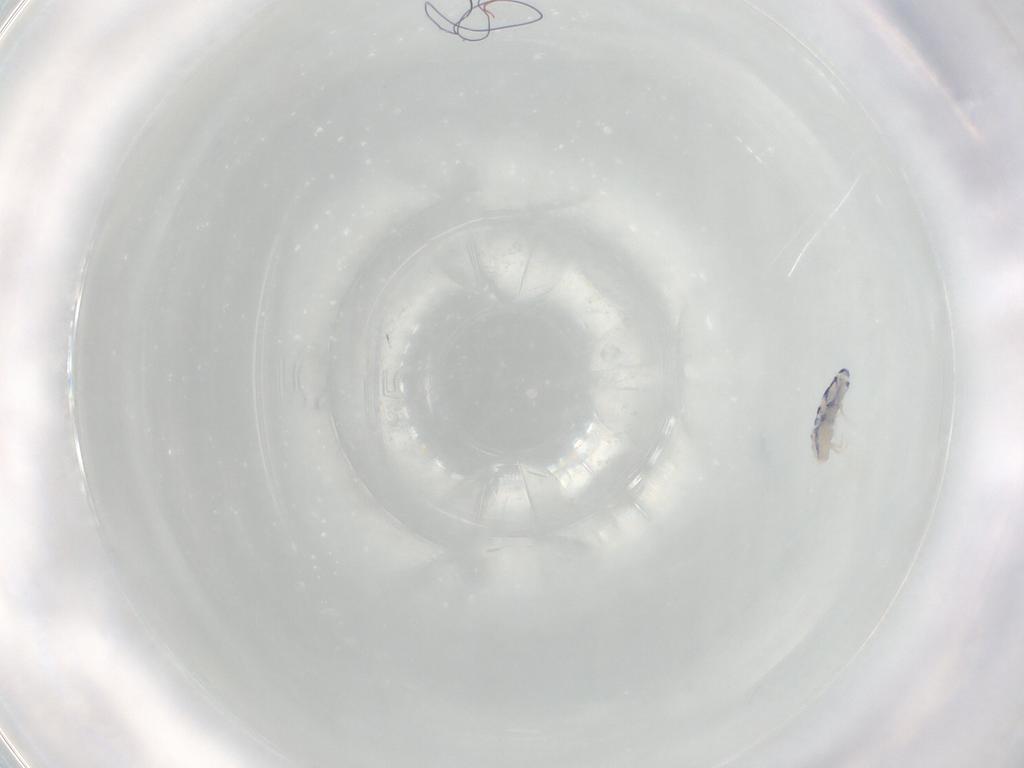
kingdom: Animalia
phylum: Arthropoda
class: Collembola
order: Entomobryomorpha
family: Entomobryidae
